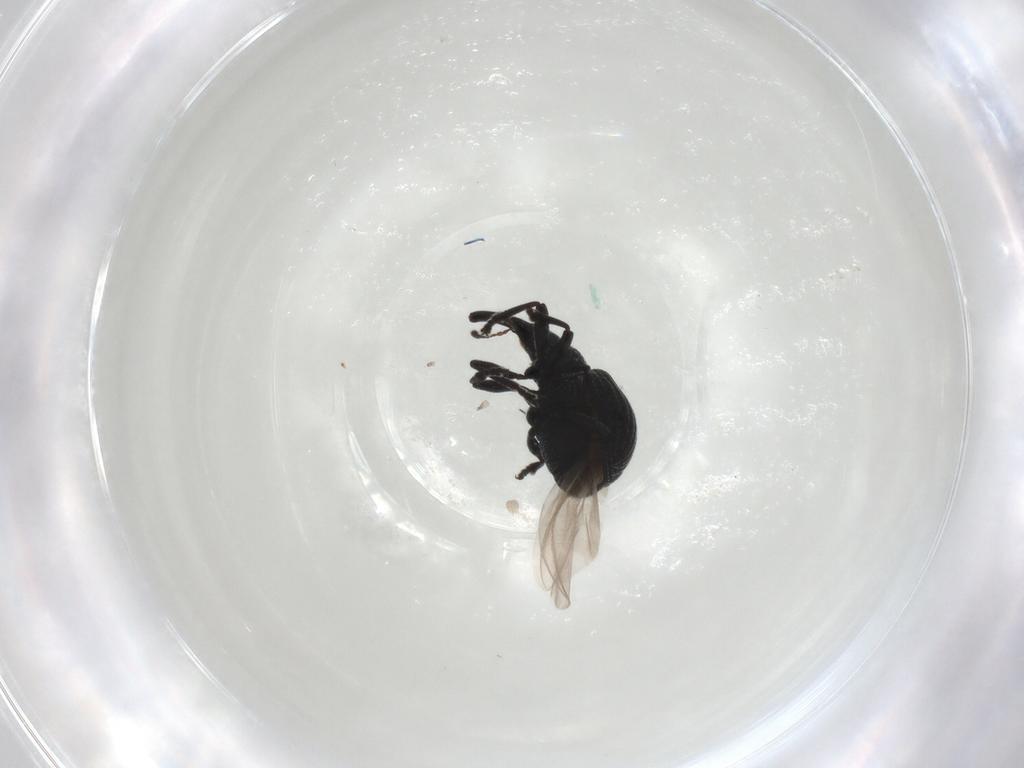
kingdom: Animalia
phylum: Arthropoda
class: Insecta
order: Coleoptera
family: Brentidae
